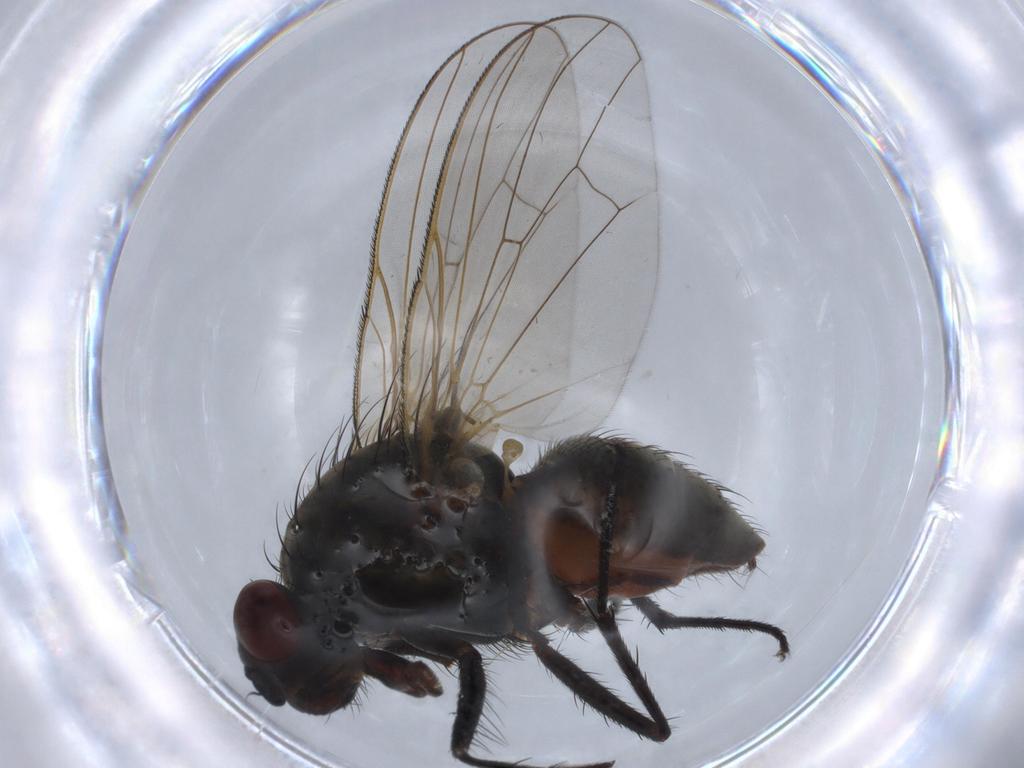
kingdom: Animalia
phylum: Arthropoda
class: Insecta
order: Diptera
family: Anthomyiidae
